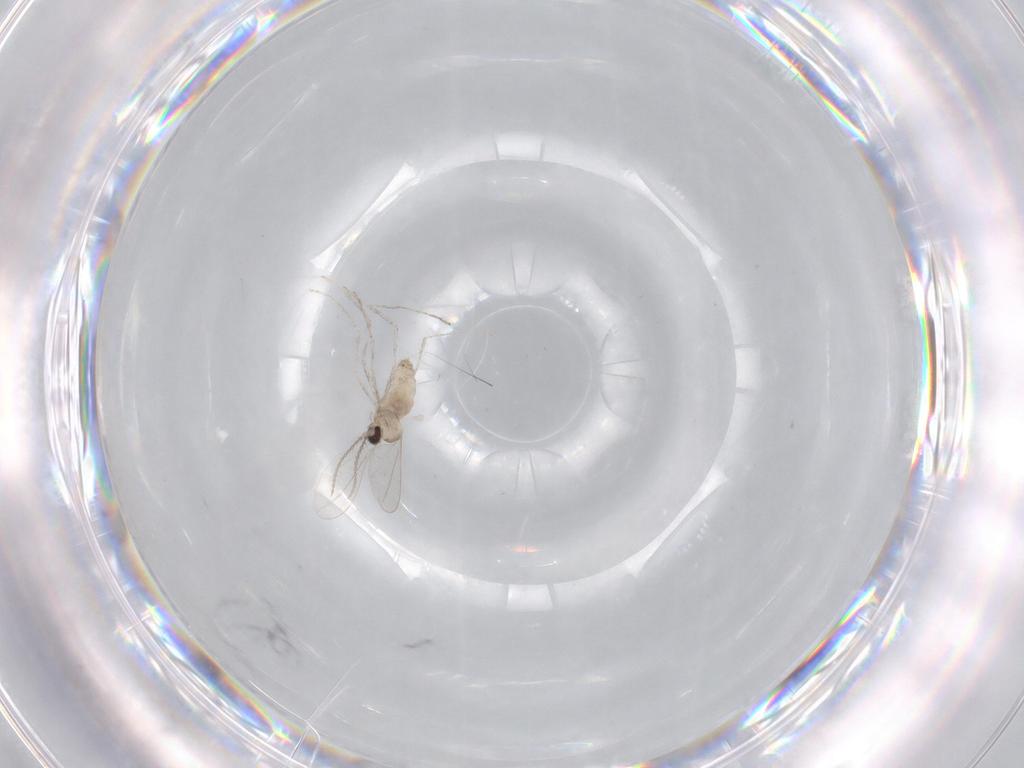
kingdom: Animalia
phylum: Arthropoda
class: Insecta
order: Diptera
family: Cecidomyiidae
